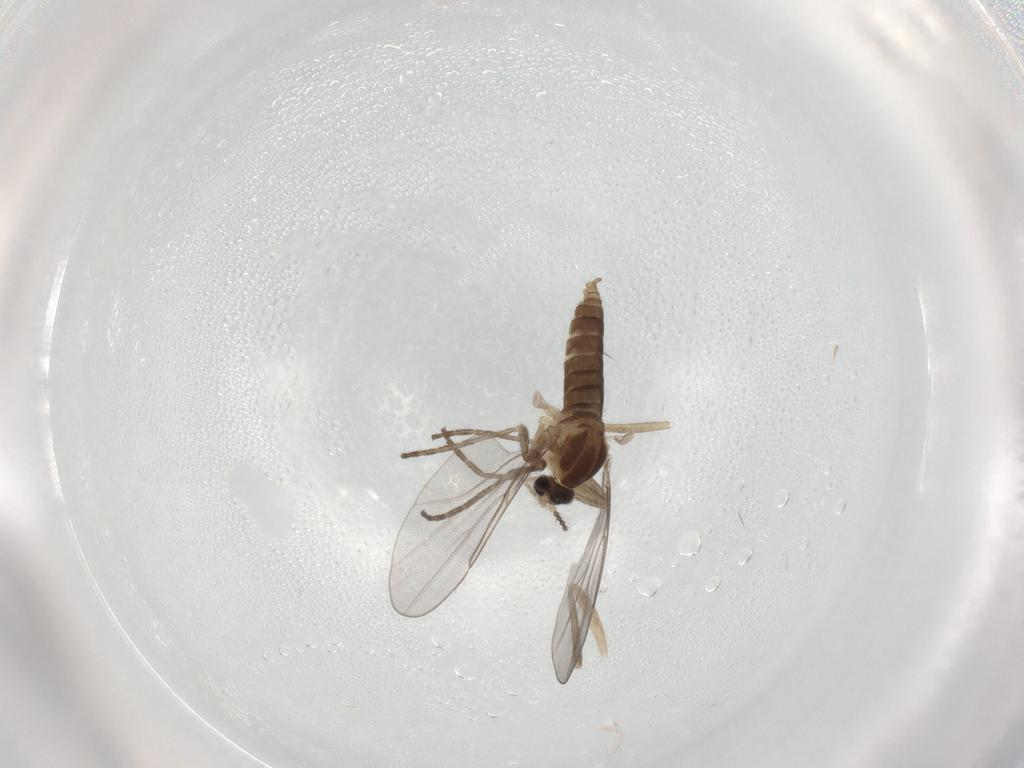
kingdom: Animalia
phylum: Arthropoda
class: Insecta
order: Diptera
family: Cecidomyiidae
